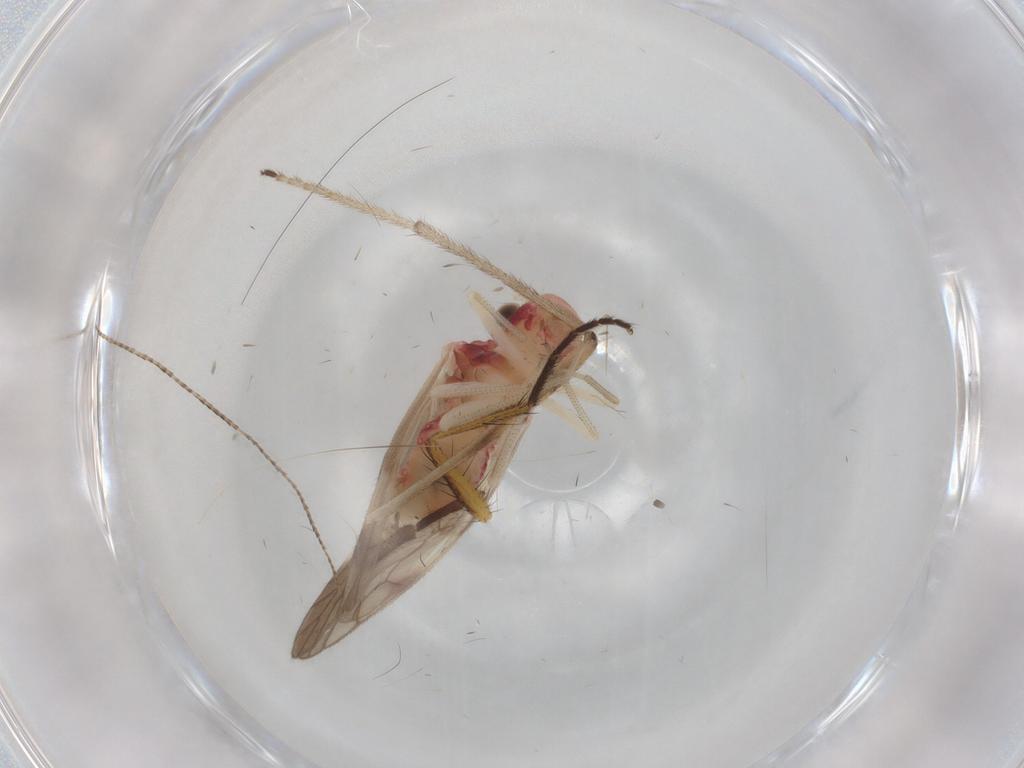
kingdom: Animalia
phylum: Arthropoda
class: Insecta
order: Psocodea
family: Caeciliusidae
